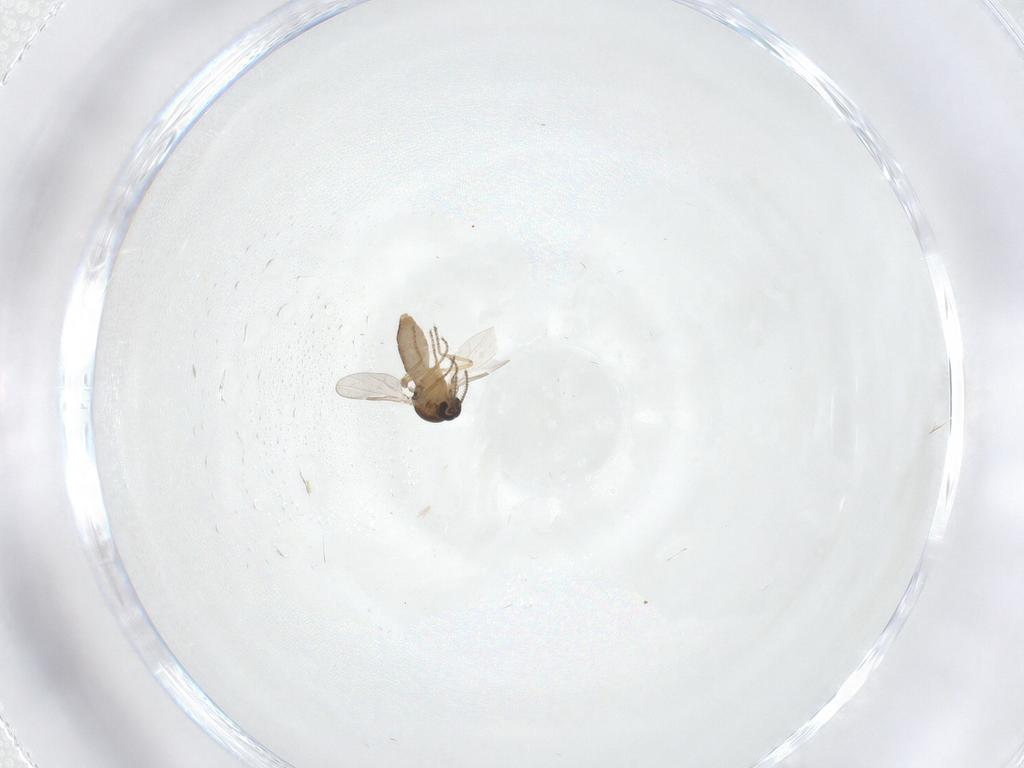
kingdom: Animalia
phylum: Arthropoda
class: Insecta
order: Diptera
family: Ceratopogonidae
